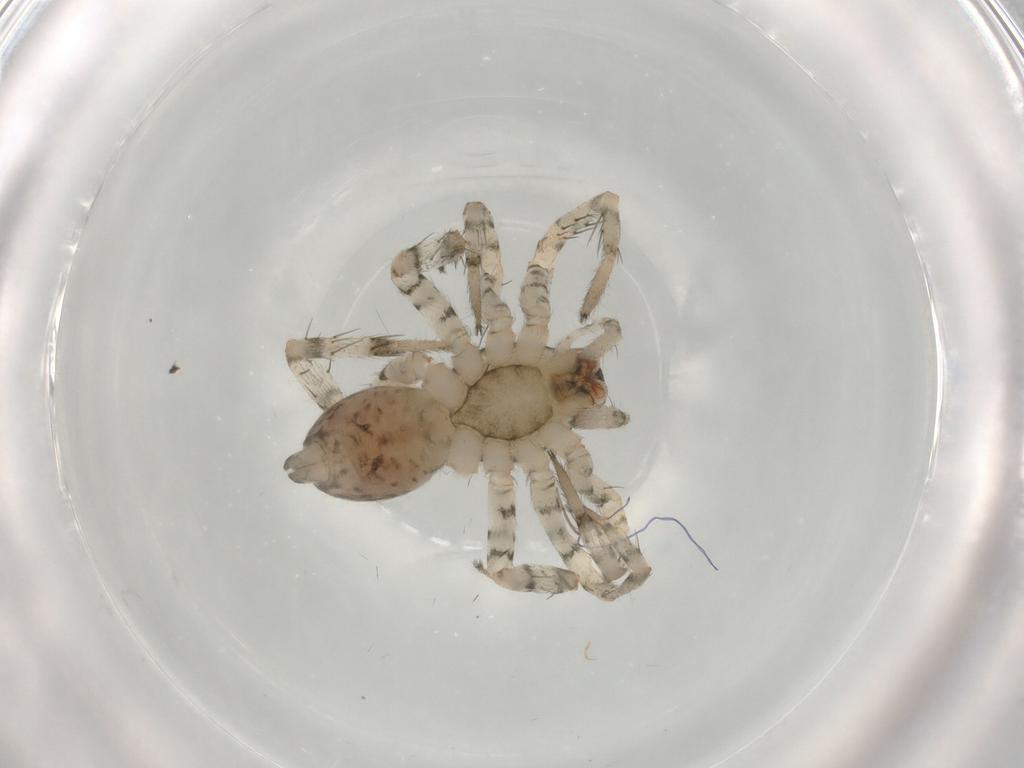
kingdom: Animalia
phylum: Arthropoda
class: Arachnida
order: Araneae
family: Anyphaenidae
